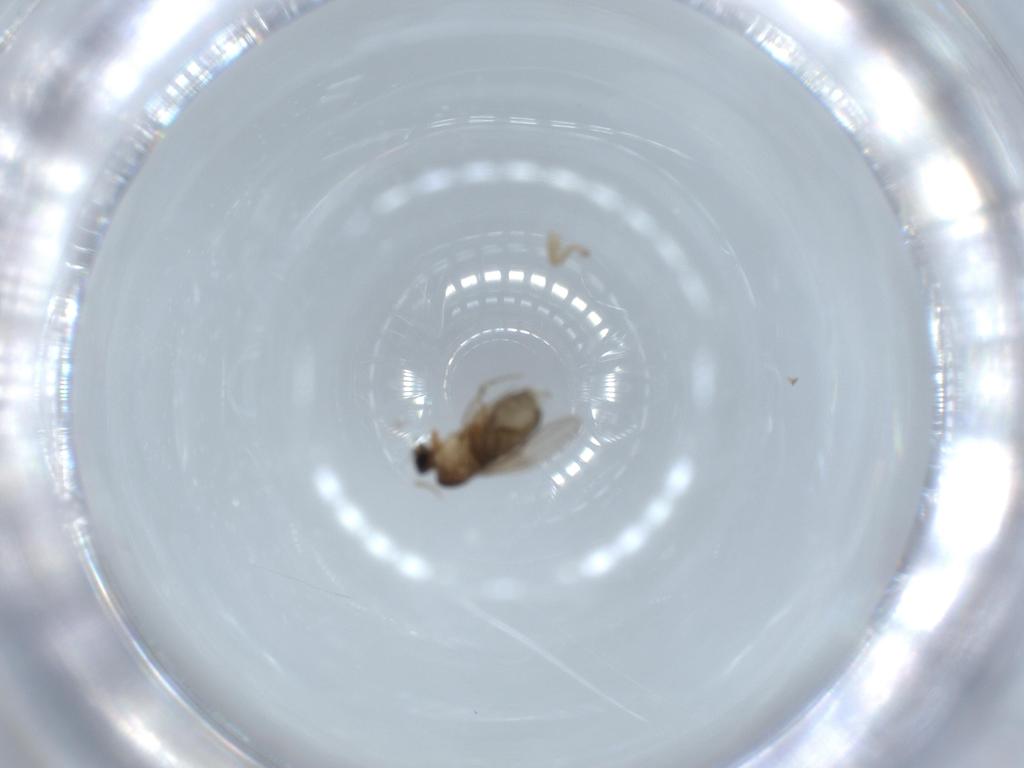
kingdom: Animalia
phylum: Arthropoda
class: Insecta
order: Diptera
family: Phoridae
